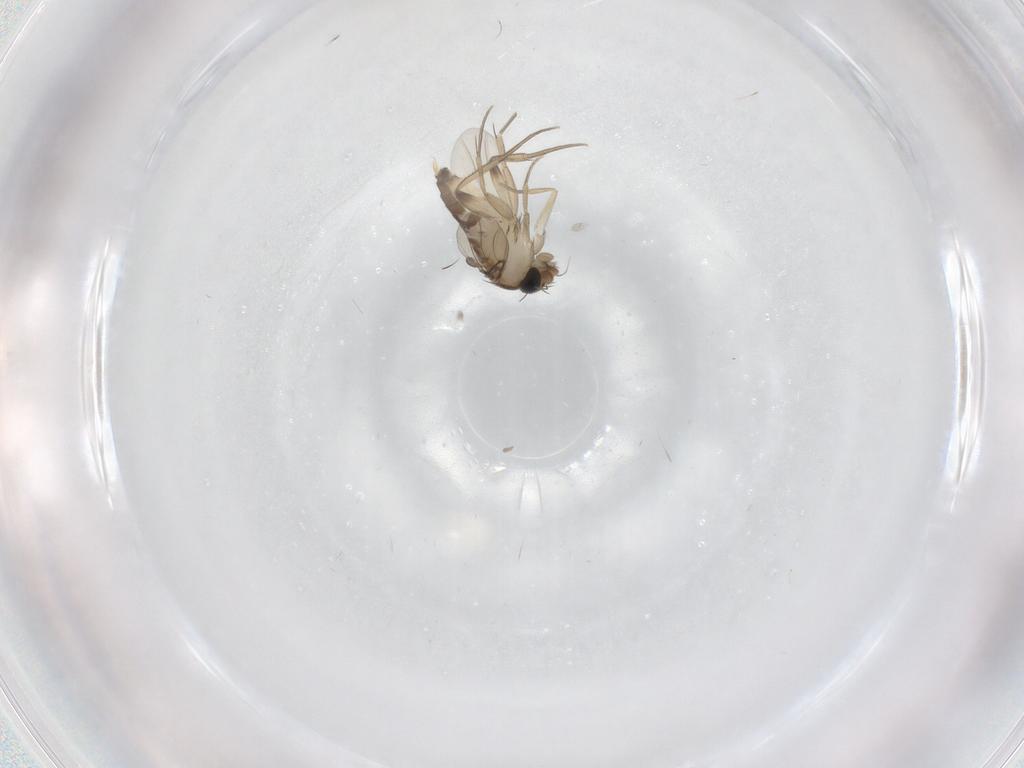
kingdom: Animalia
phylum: Arthropoda
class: Insecta
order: Diptera
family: Phoridae
